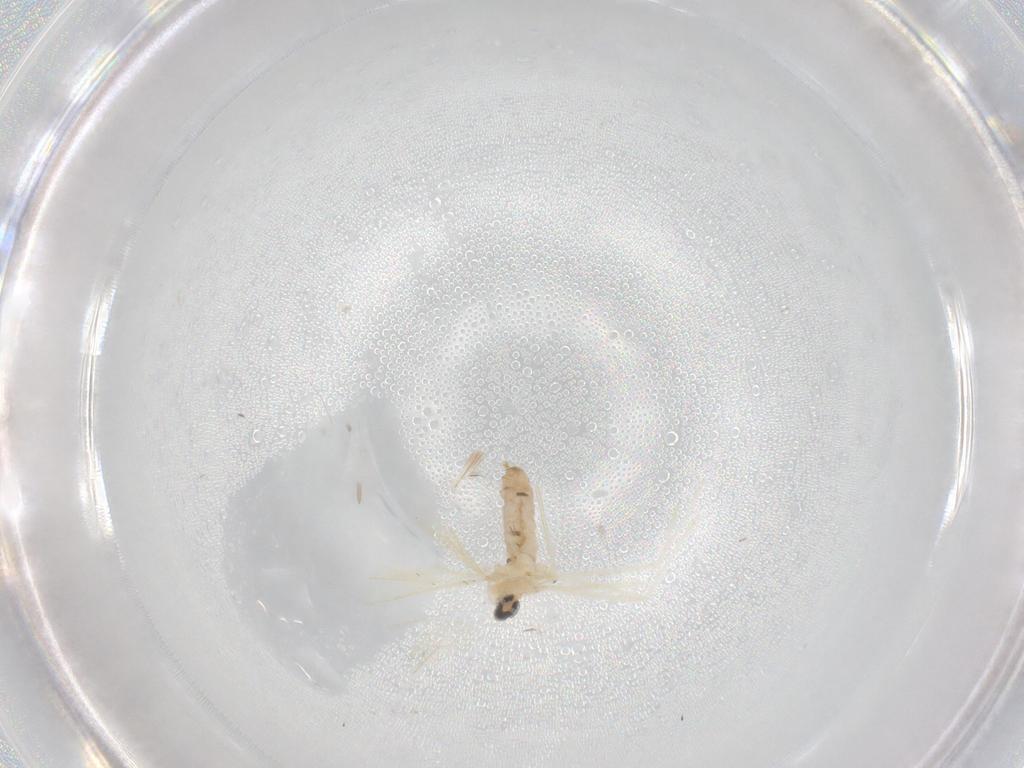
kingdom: Animalia
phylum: Arthropoda
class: Insecta
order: Diptera
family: Cecidomyiidae
